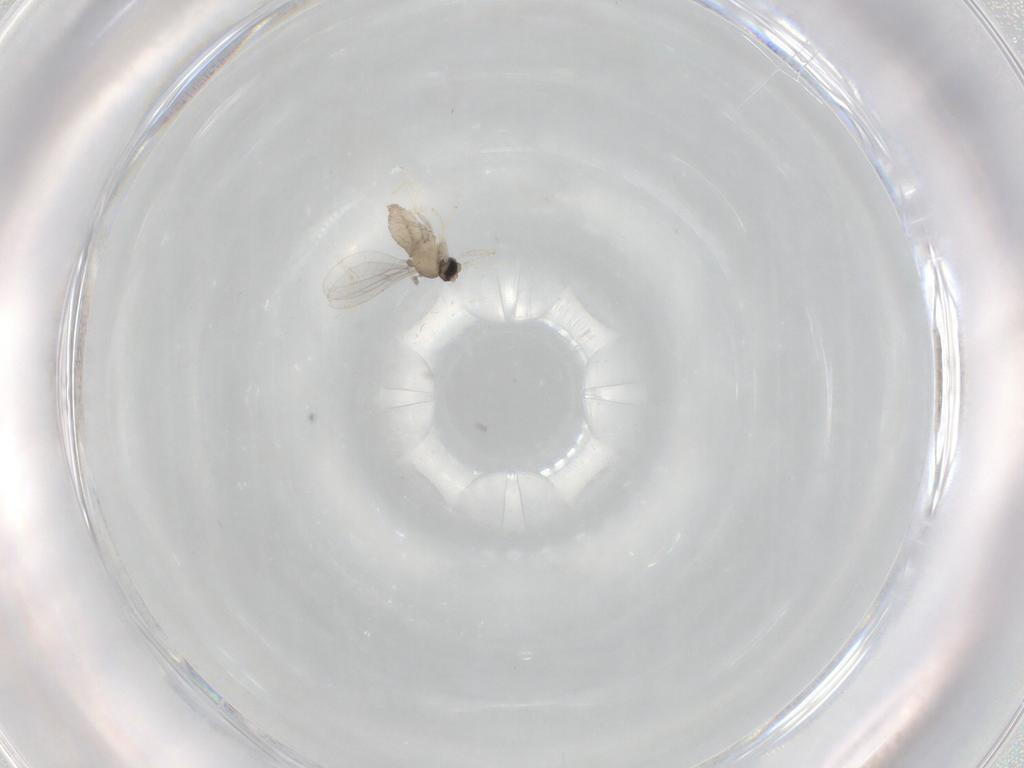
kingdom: Animalia
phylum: Arthropoda
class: Insecta
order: Diptera
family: Cecidomyiidae
